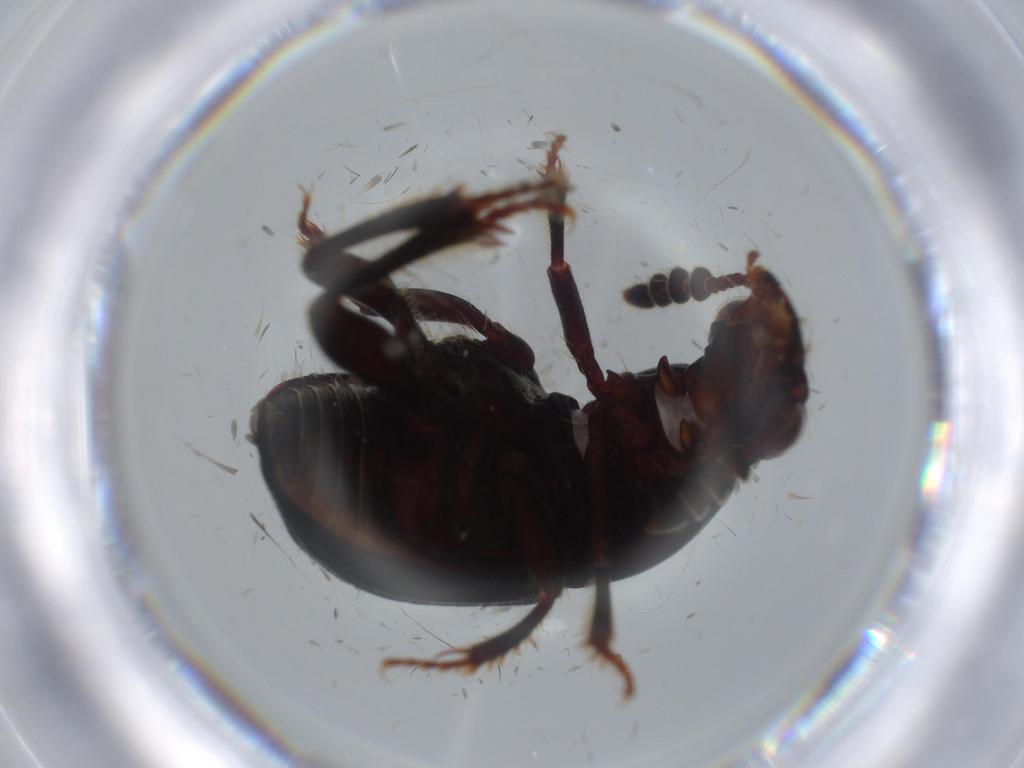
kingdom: Animalia
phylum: Arthropoda
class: Insecta
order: Coleoptera
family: Leiodidae
